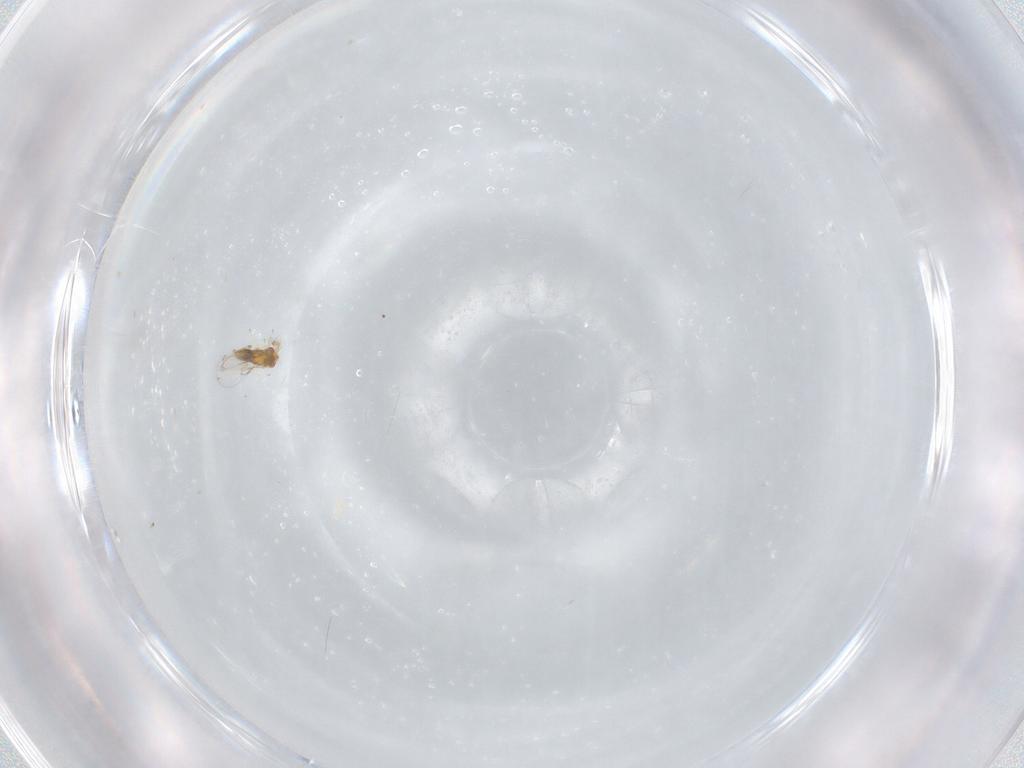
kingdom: Animalia
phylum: Arthropoda
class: Insecta
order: Hymenoptera
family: Trichogrammatidae
